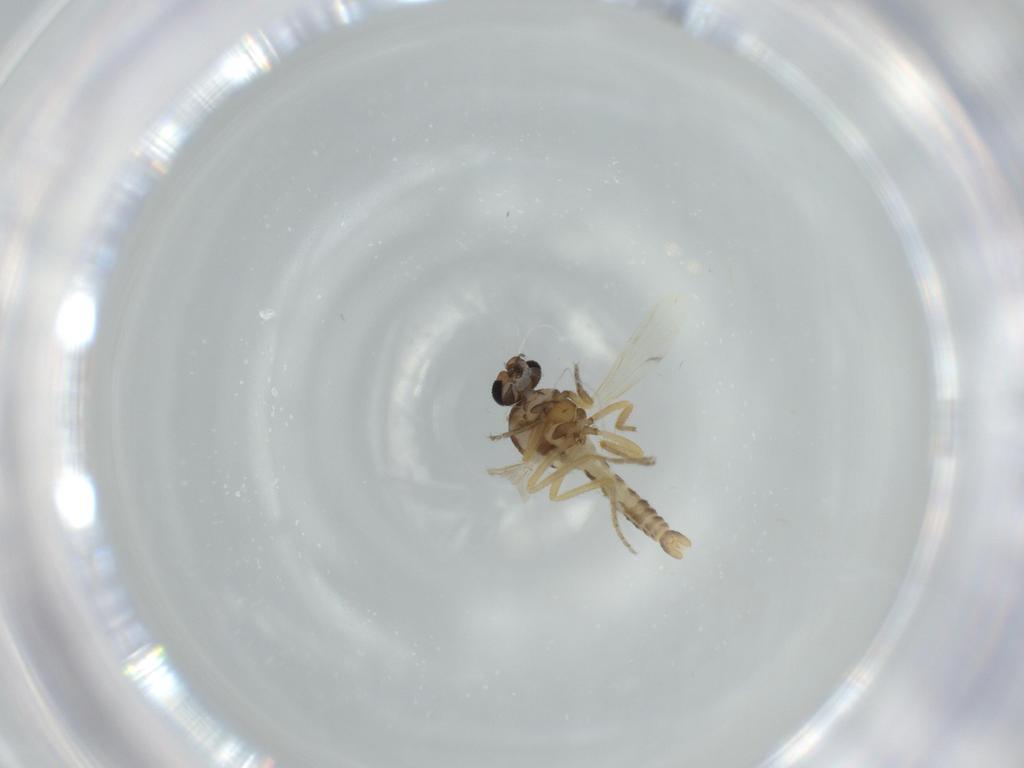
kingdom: Animalia
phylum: Arthropoda
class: Insecta
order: Diptera
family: Ceratopogonidae
